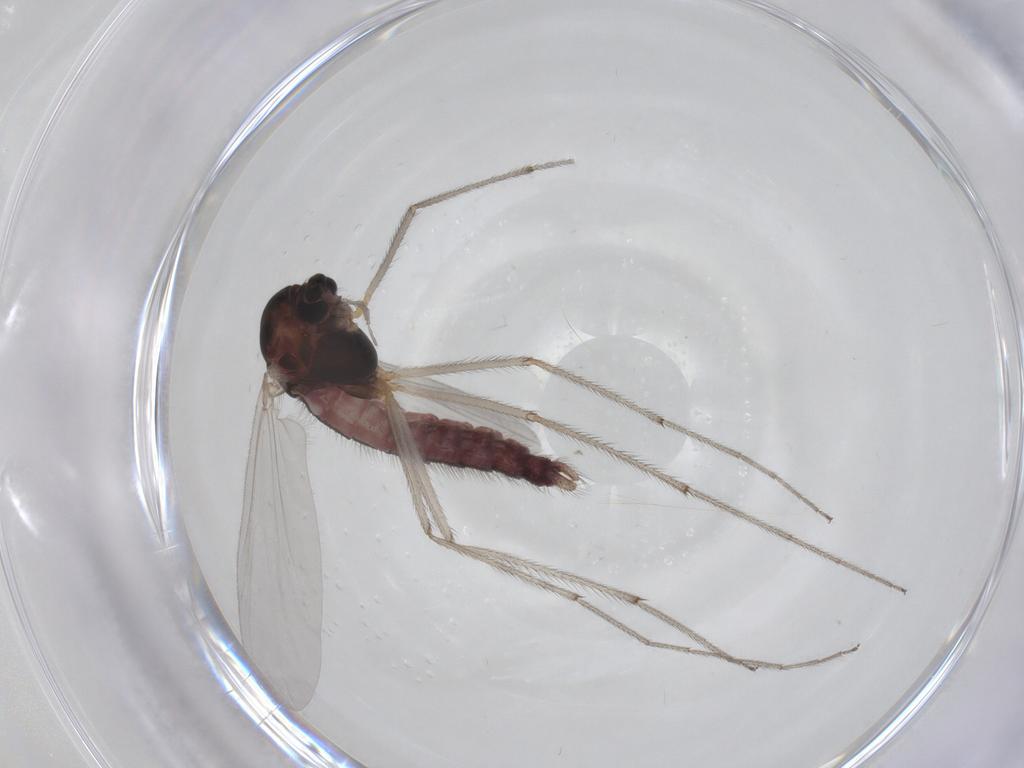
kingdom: Animalia
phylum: Arthropoda
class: Insecta
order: Diptera
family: Chironomidae
